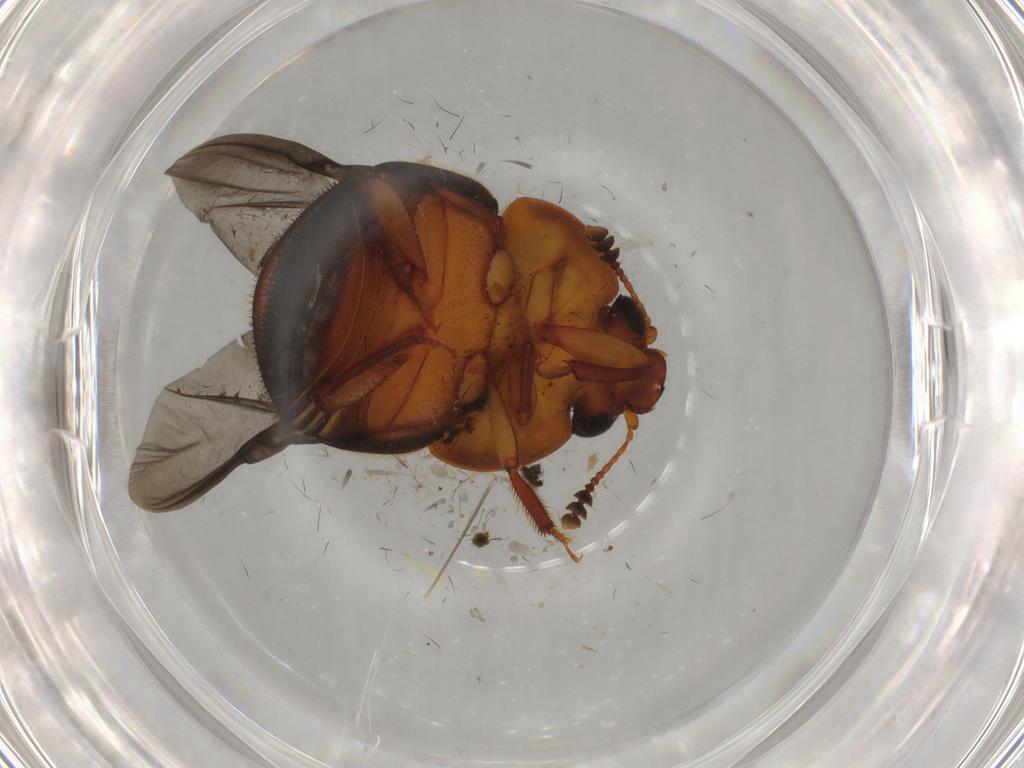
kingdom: Animalia
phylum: Arthropoda
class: Insecta
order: Coleoptera
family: Nitidulidae
